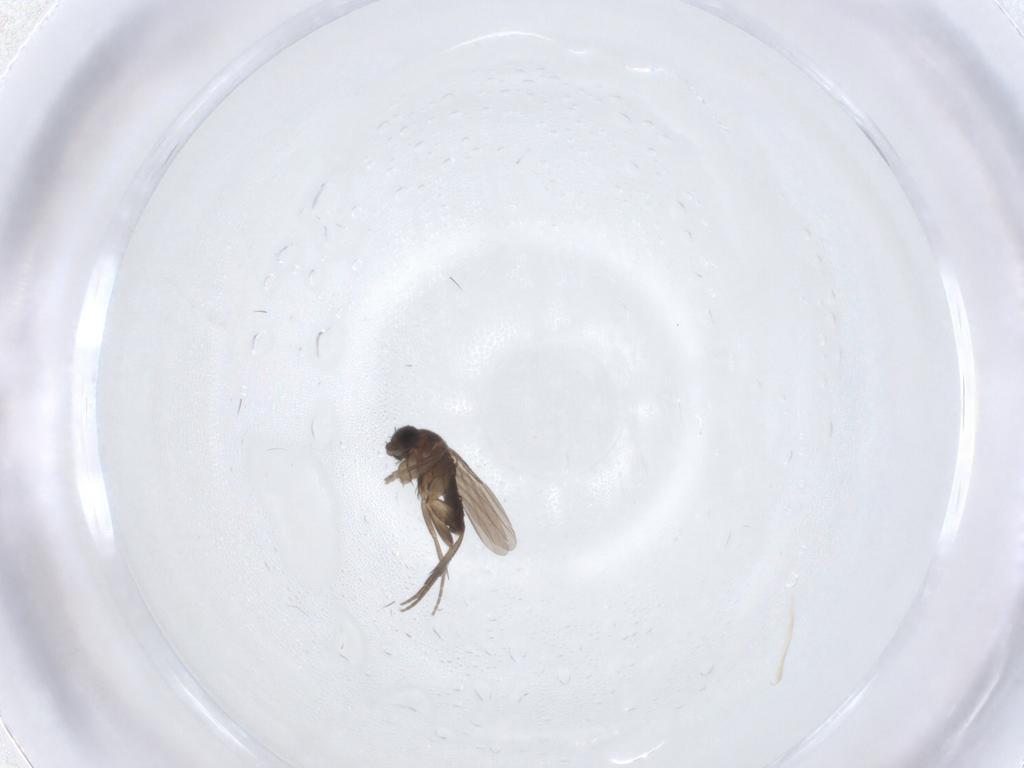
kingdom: Animalia
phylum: Arthropoda
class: Insecta
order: Diptera
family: Phoridae
